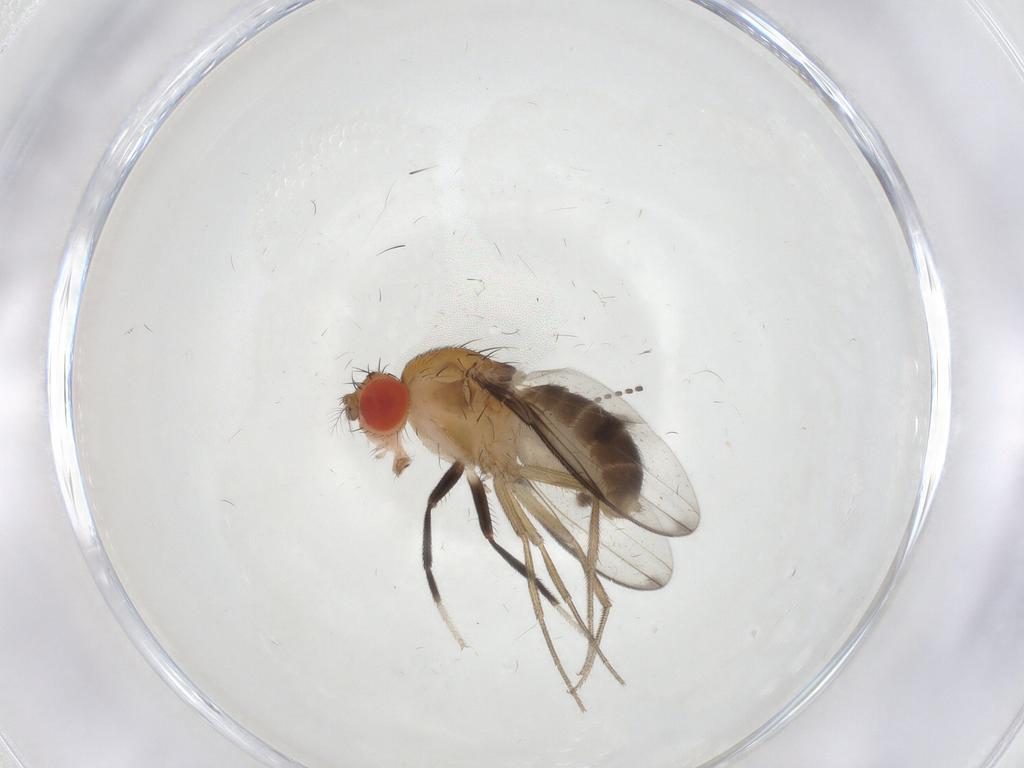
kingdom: Animalia
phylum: Arthropoda
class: Insecta
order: Diptera
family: Drosophilidae
